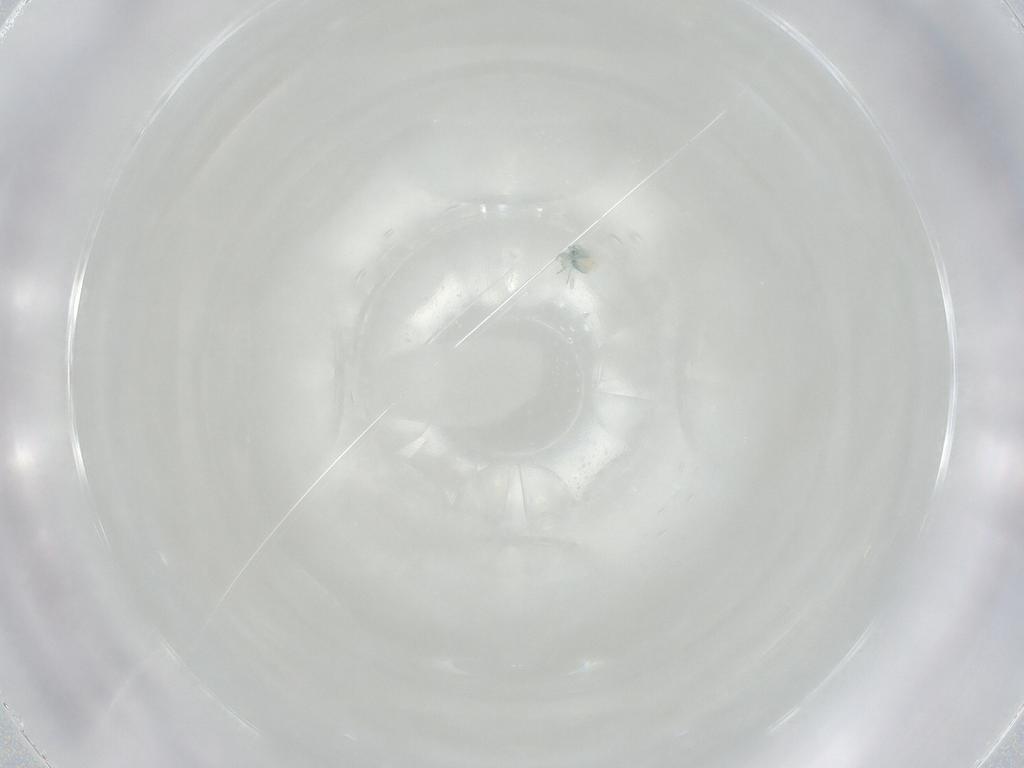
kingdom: Animalia
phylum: Arthropoda
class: Arachnida
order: Trombidiformes
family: Arrenuridae
